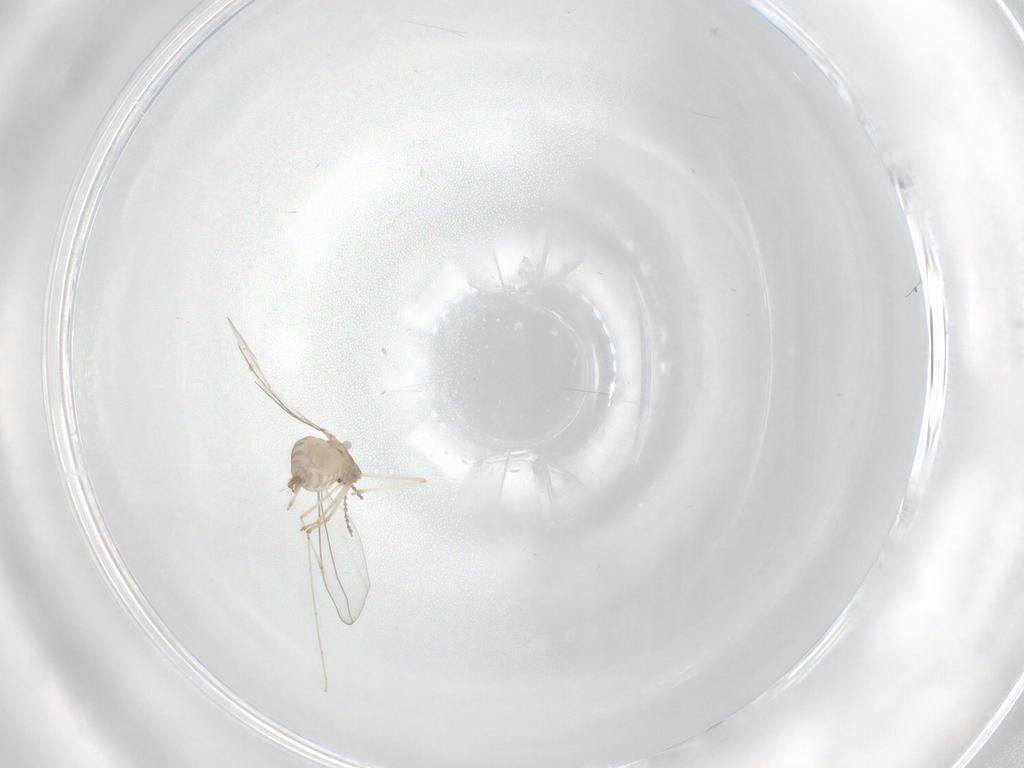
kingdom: Animalia
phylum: Arthropoda
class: Insecta
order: Diptera
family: Cecidomyiidae
